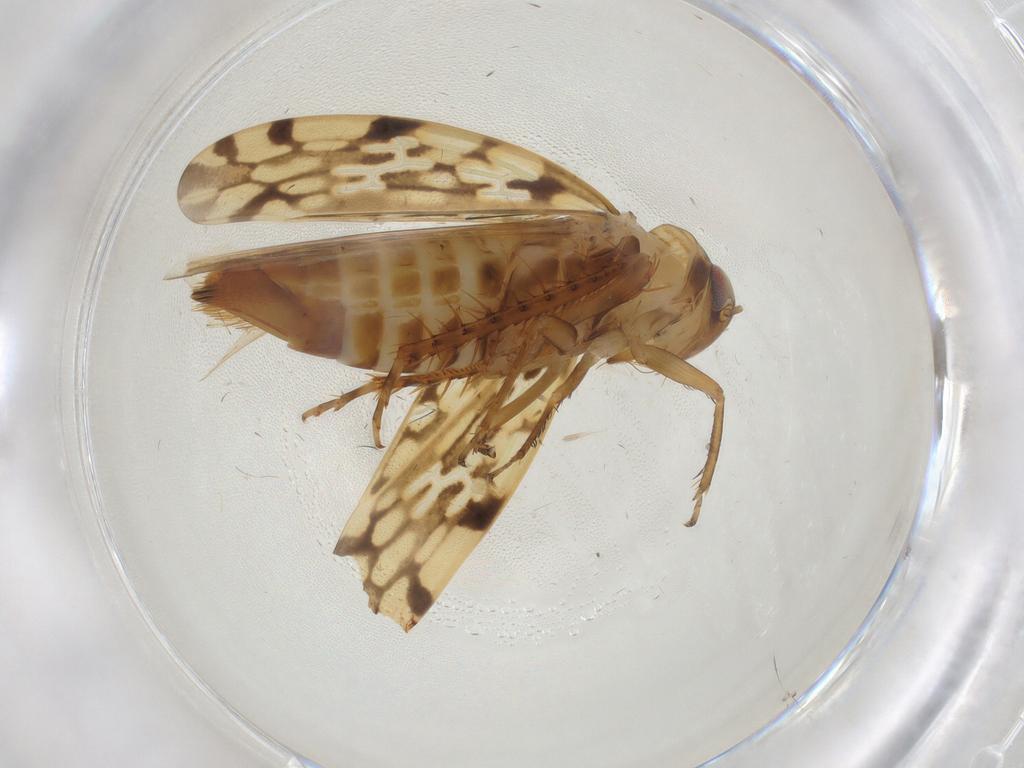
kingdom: Animalia
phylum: Arthropoda
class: Insecta
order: Hemiptera
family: Cicadellidae
